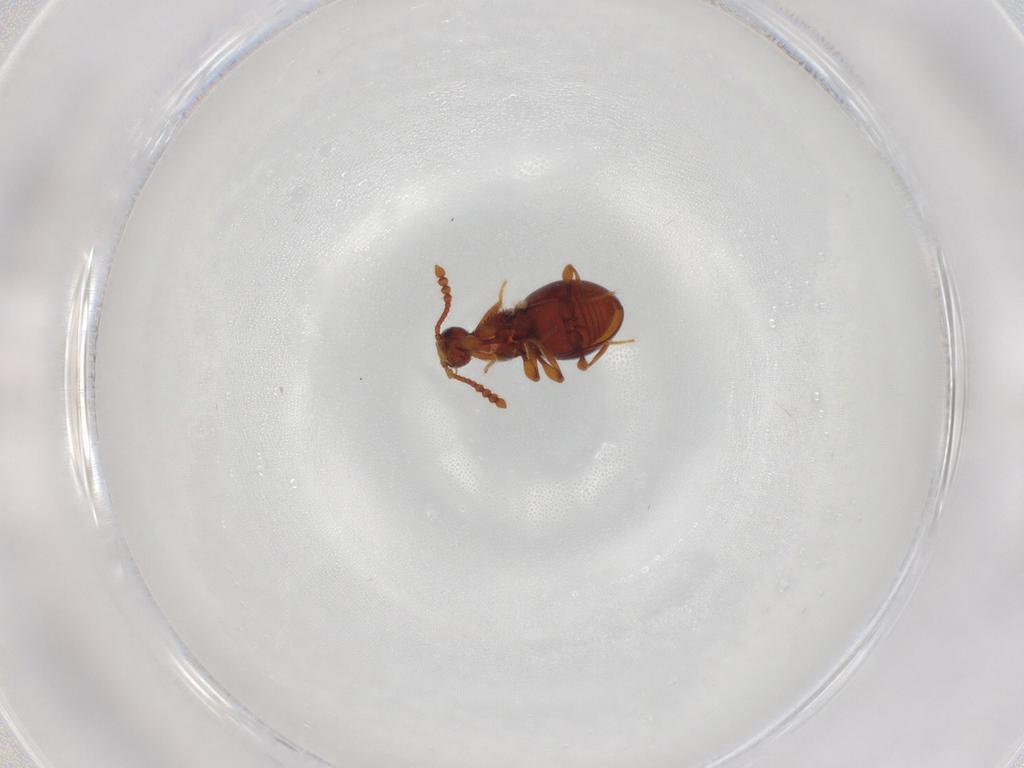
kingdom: Animalia
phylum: Arthropoda
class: Insecta
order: Coleoptera
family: Staphylinidae
